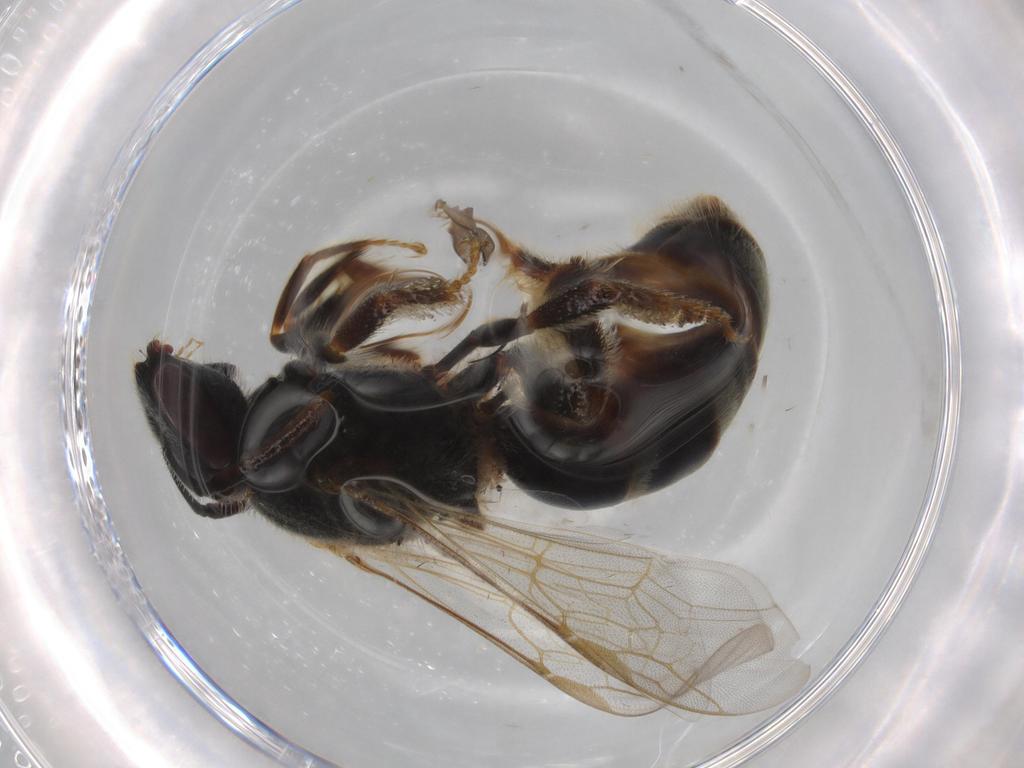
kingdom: Animalia
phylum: Arthropoda
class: Insecta
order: Hymenoptera
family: Halictidae
